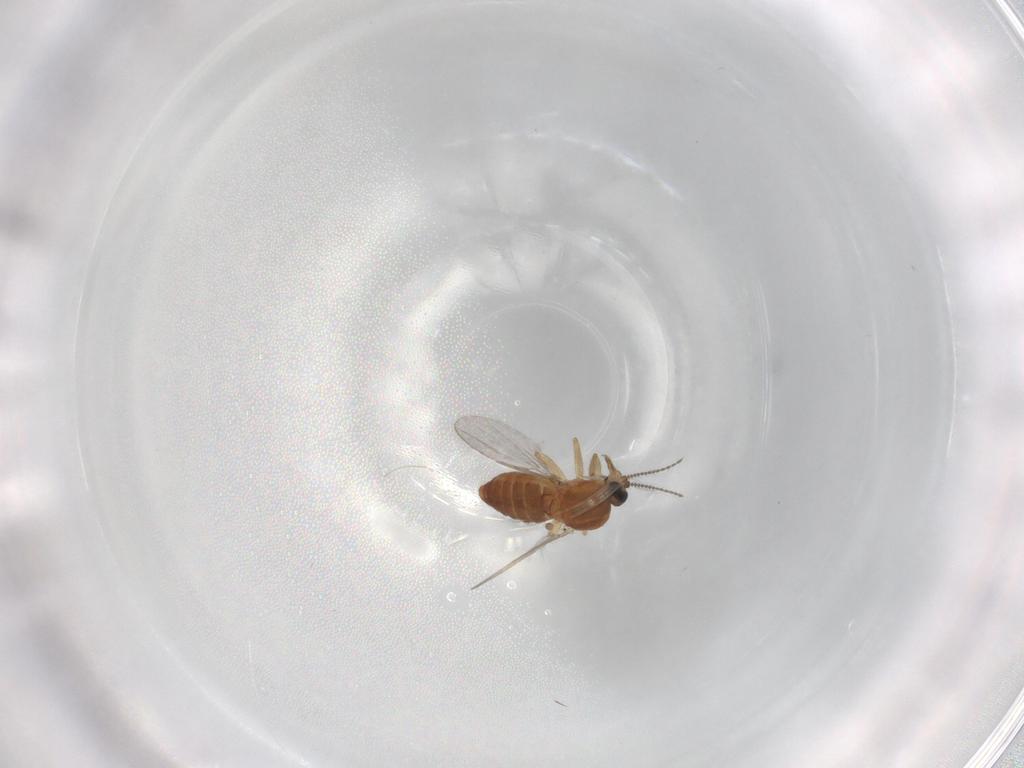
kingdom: Animalia
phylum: Arthropoda
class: Insecta
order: Diptera
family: Ceratopogonidae
